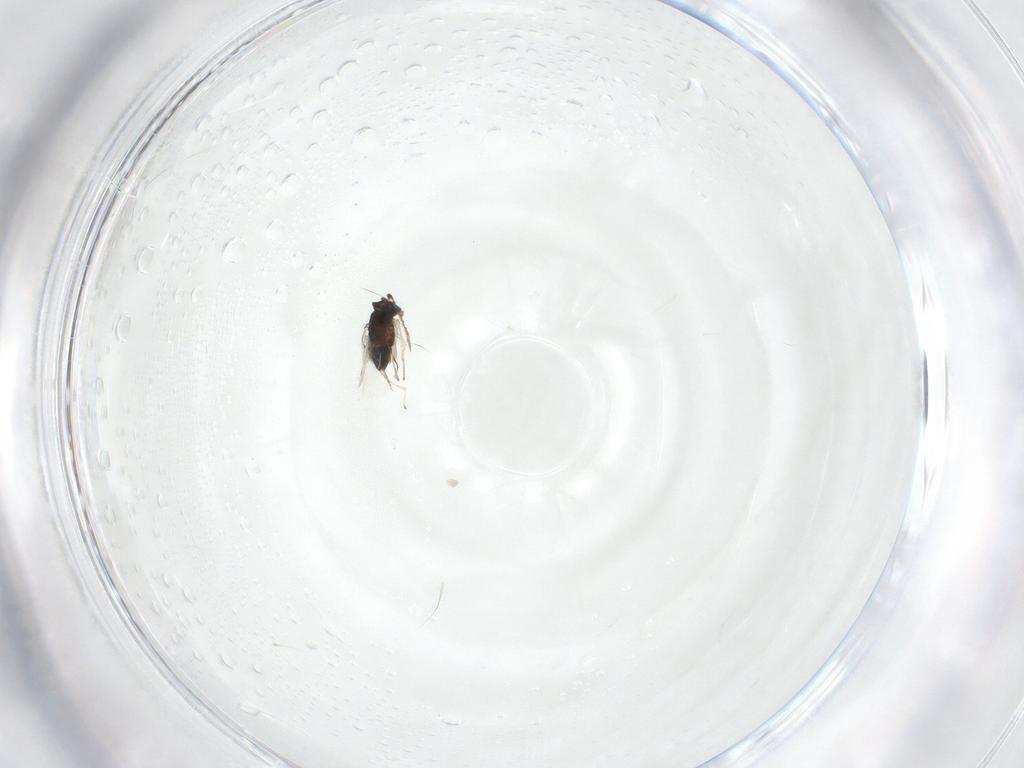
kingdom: Animalia
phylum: Arthropoda
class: Insecta
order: Hymenoptera
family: Encyrtidae
